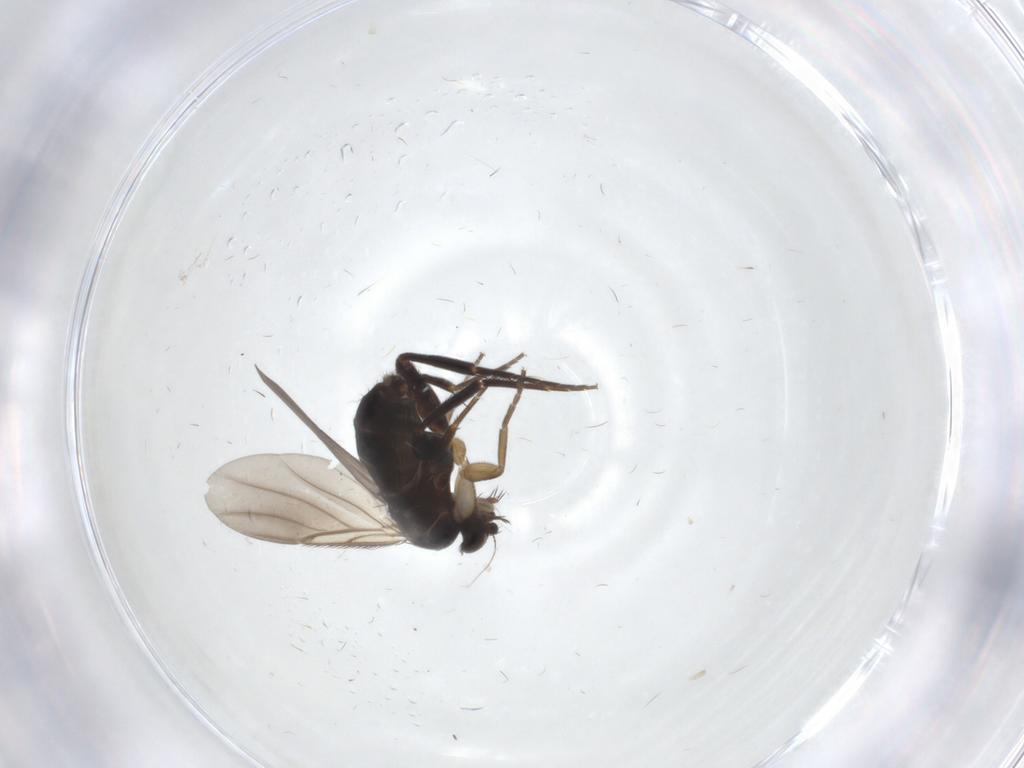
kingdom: Animalia
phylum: Arthropoda
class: Insecta
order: Diptera
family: Phoridae
